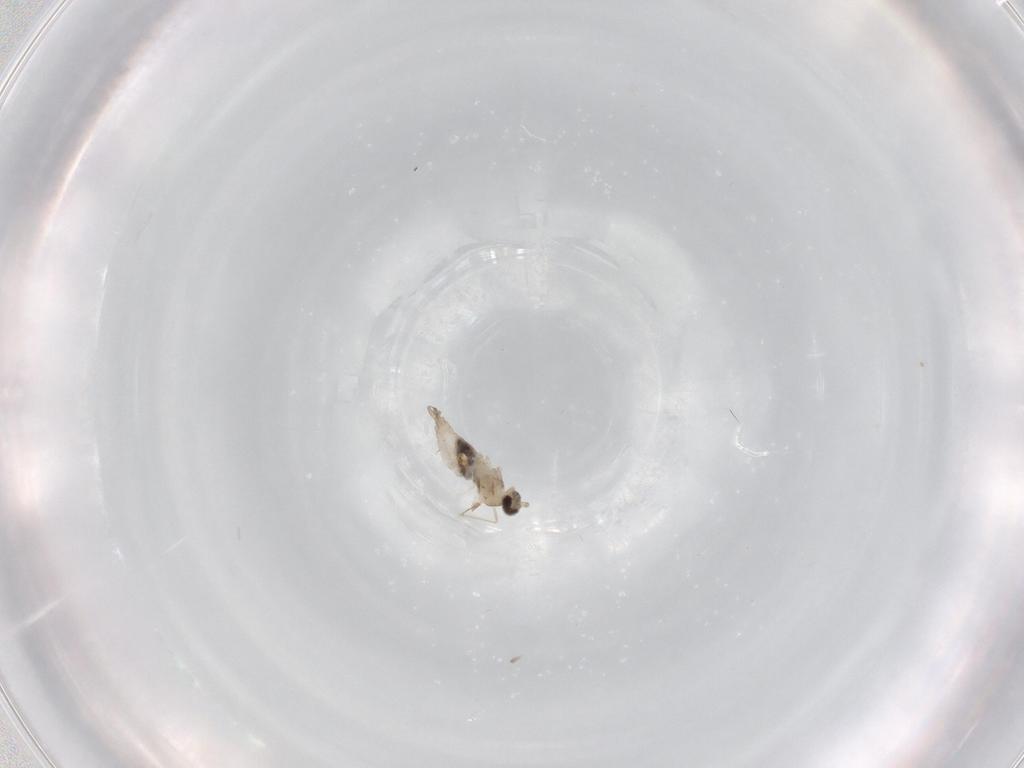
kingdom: Animalia
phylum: Arthropoda
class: Insecta
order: Diptera
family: Cecidomyiidae
